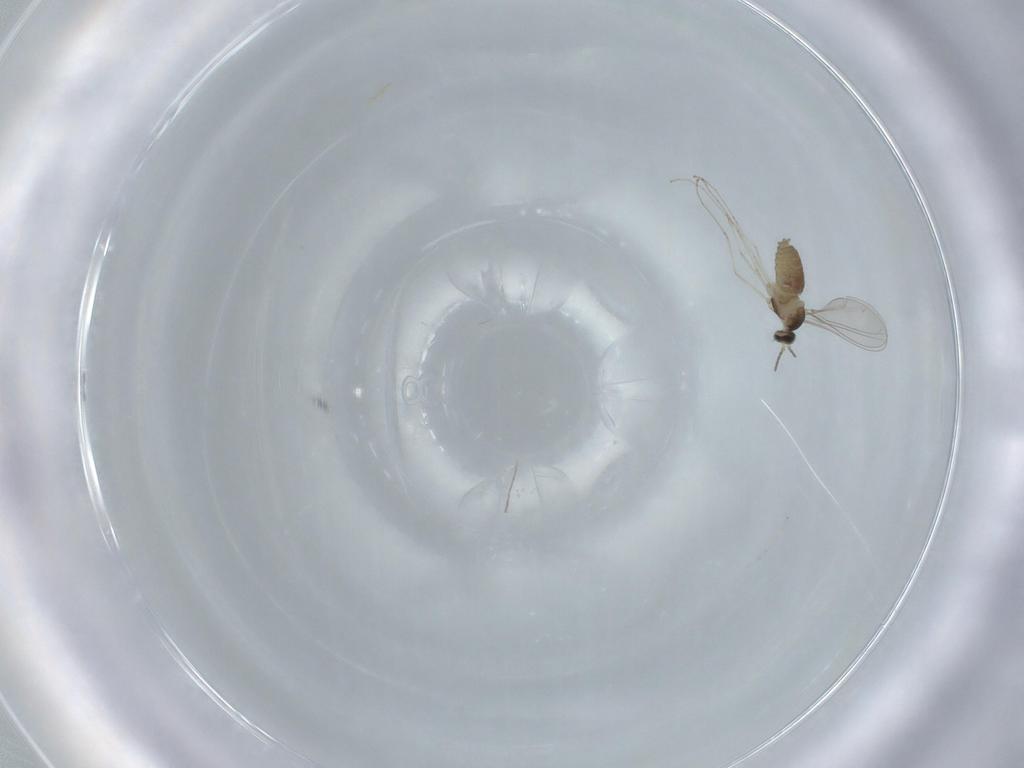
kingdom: Animalia
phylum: Arthropoda
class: Insecta
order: Diptera
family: Cecidomyiidae
